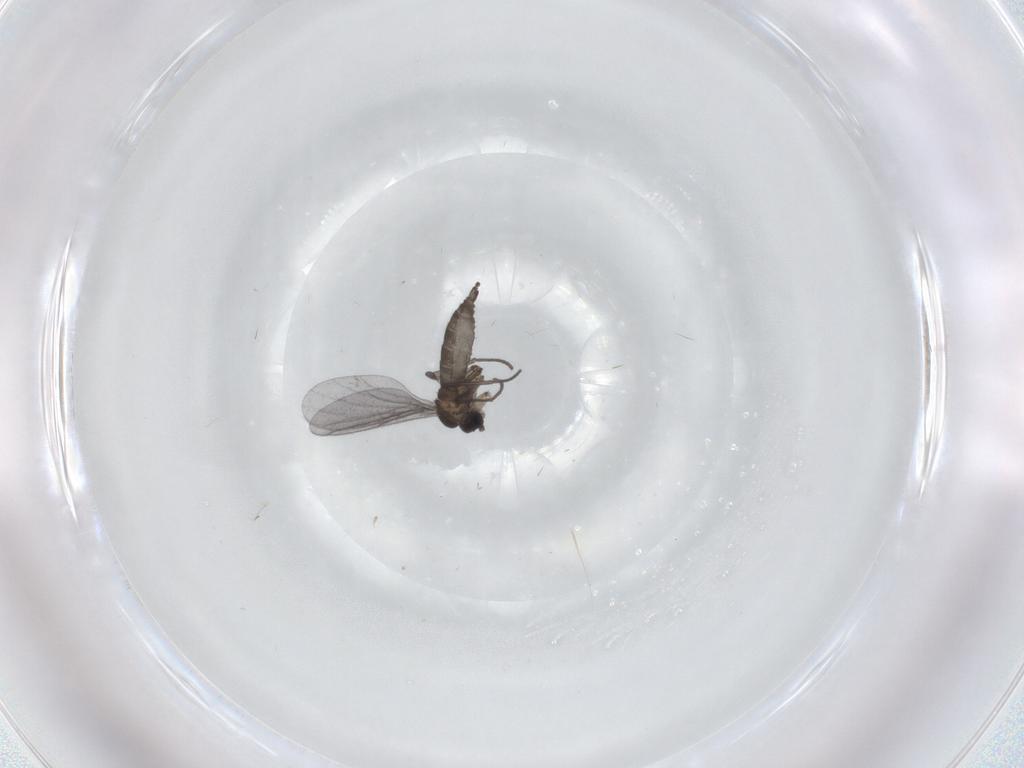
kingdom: Animalia
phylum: Arthropoda
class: Insecta
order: Diptera
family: Cecidomyiidae
